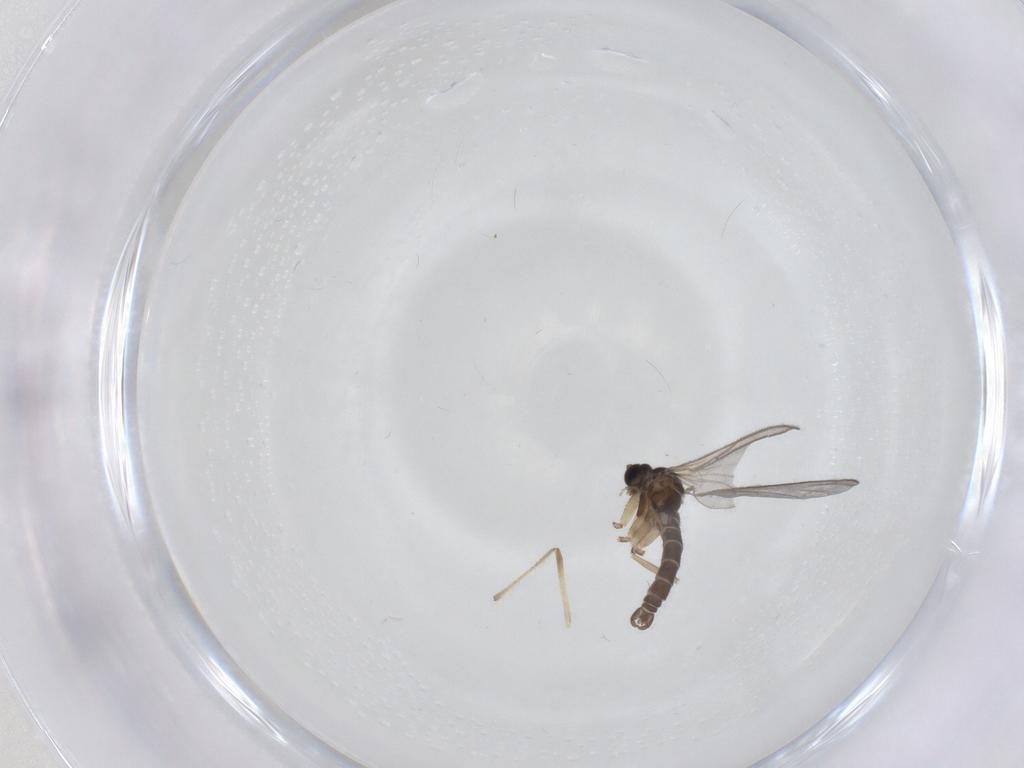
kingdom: Animalia
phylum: Arthropoda
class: Insecta
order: Diptera
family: Sciaridae
